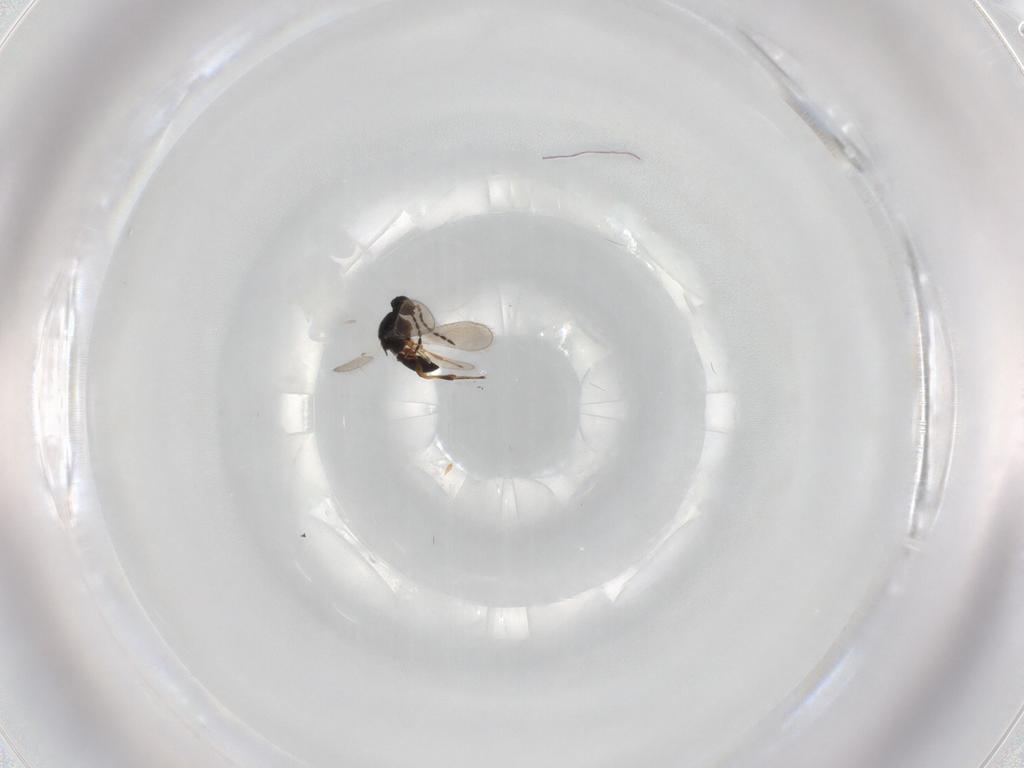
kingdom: Animalia
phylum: Arthropoda
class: Insecta
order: Hymenoptera
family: Platygastridae
